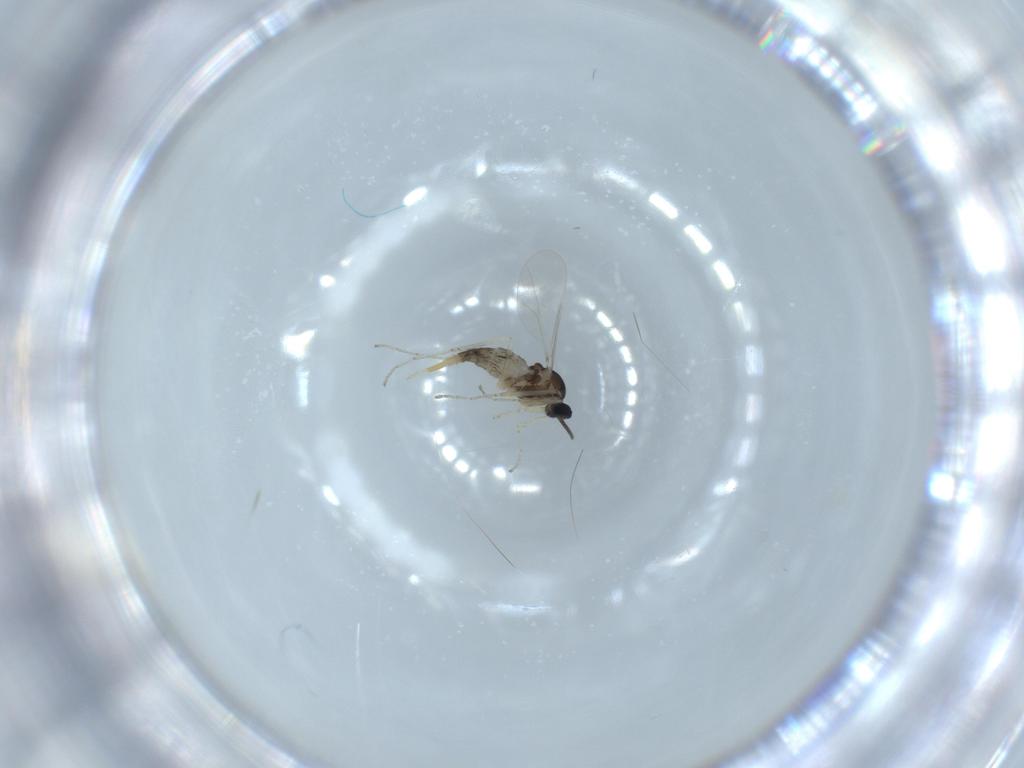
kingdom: Animalia
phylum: Arthropoda
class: Insecta
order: Diptera
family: Cecidomyiidae
